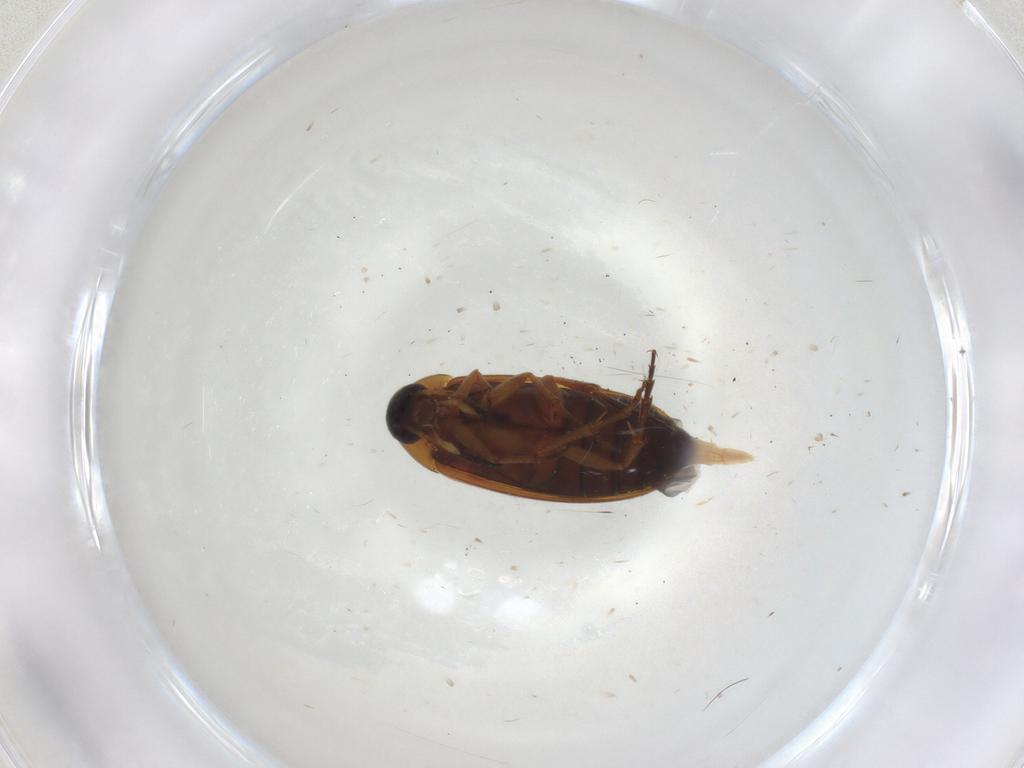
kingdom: Animalia
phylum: Arthropoda
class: Insecta
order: Coleoptera
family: Scraptiidae
